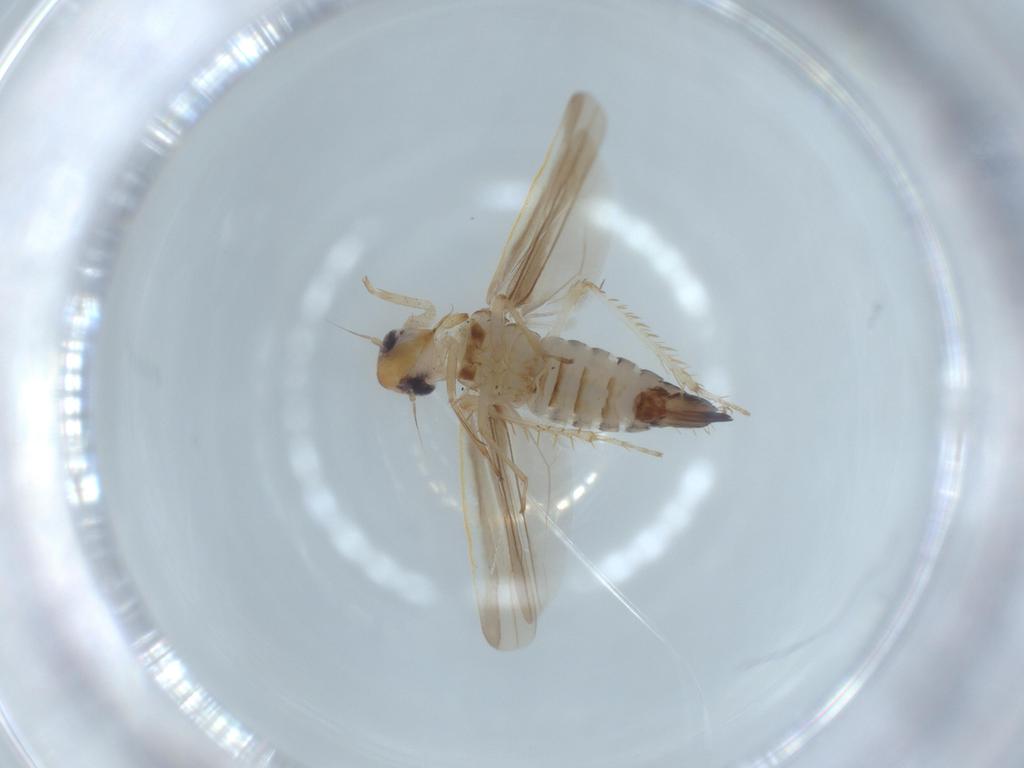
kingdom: Animalia
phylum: Arthropoda
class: Insecta
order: Hemiptera
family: Cicadellidae
